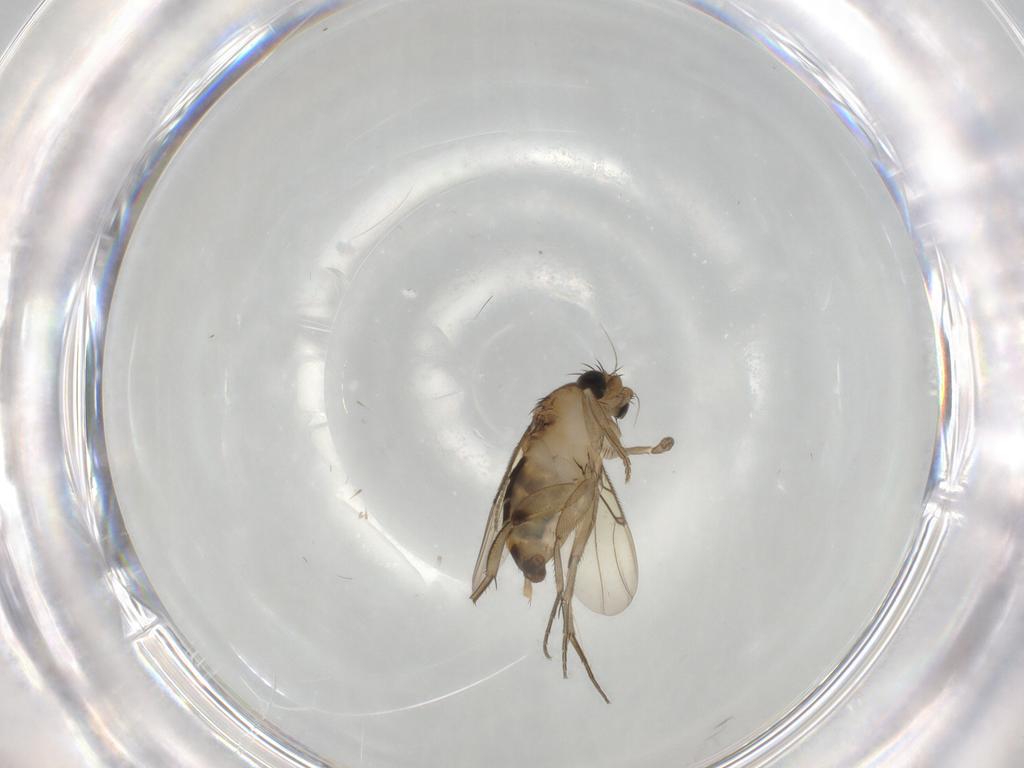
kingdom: Animalia
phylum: Arthropoda
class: Insecta
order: Diptera
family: Phoridae
